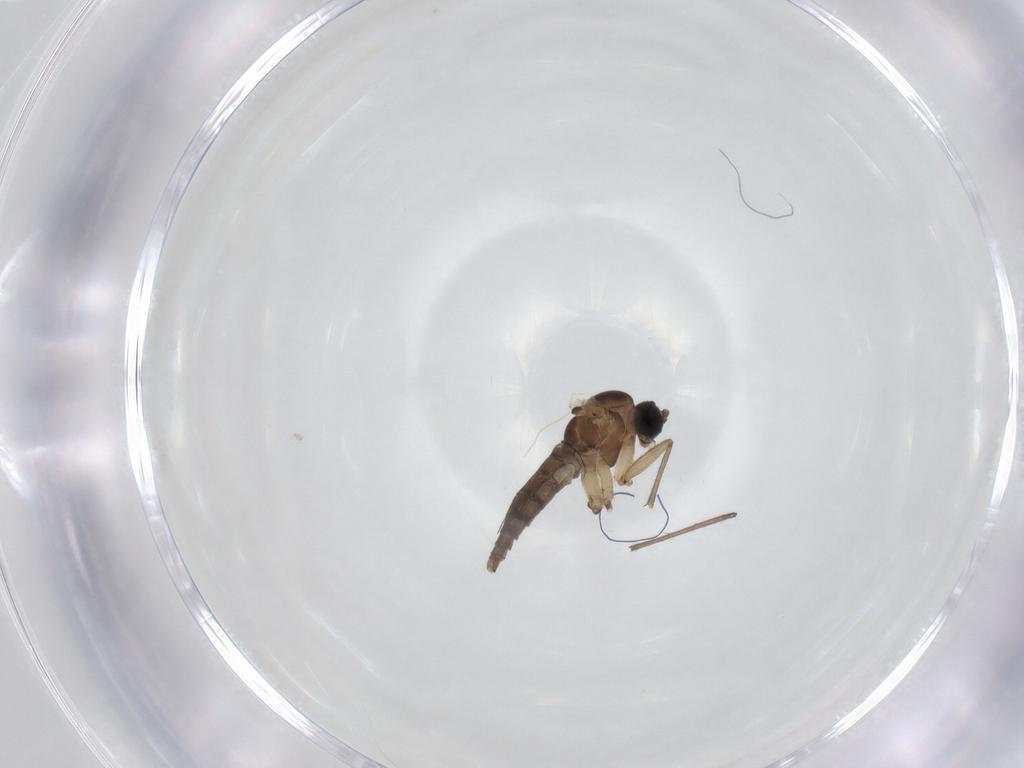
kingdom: Animalia
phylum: Arthropoda
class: Insecta
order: Diptera
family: Sciaridae
